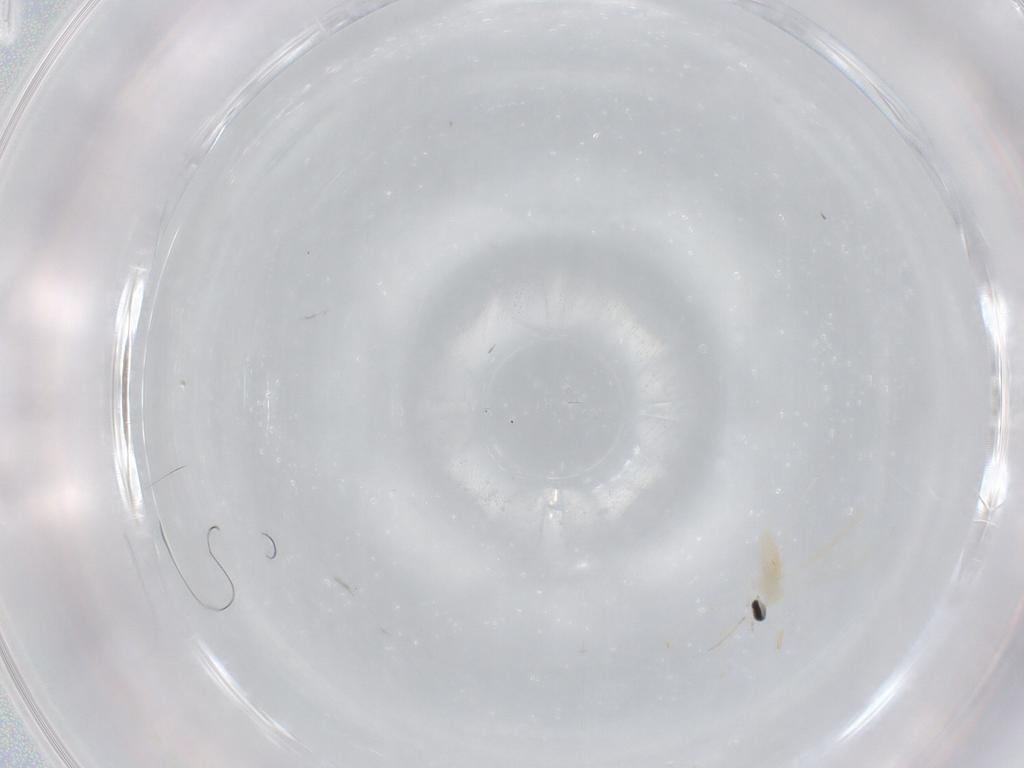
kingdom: Animalia
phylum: Arthropoda
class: Insecta
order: Diptera
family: Cecidomyiidae
